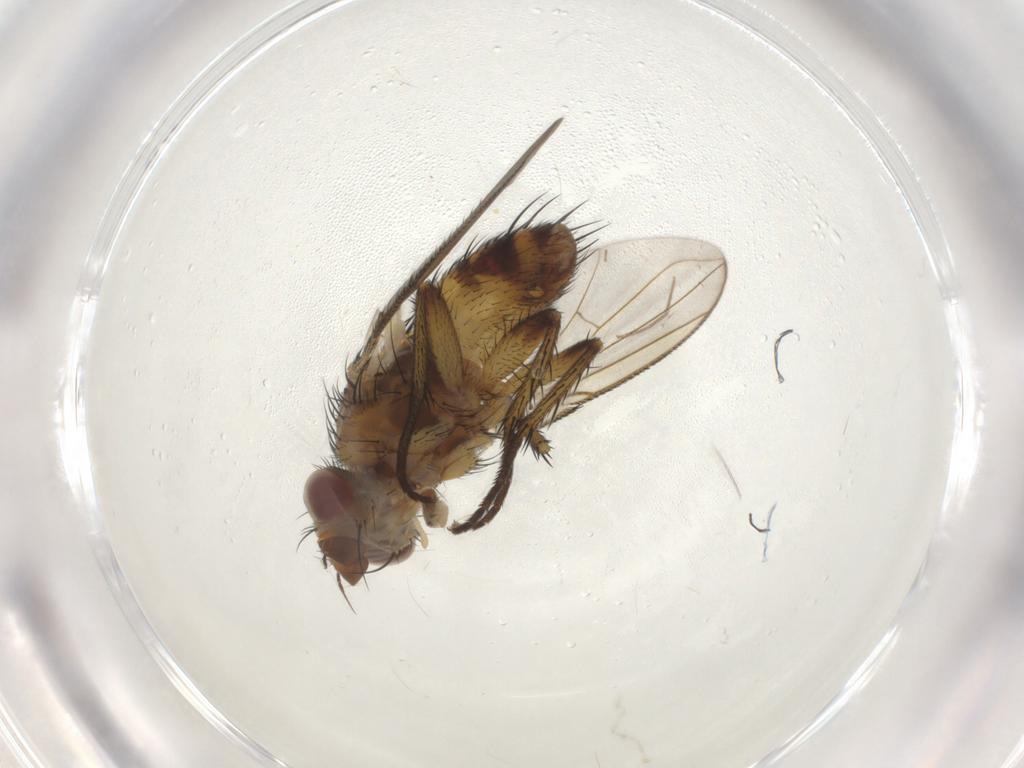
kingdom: Animalia
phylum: Arthropoda
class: Insecta
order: Diptera
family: Tachinidae
